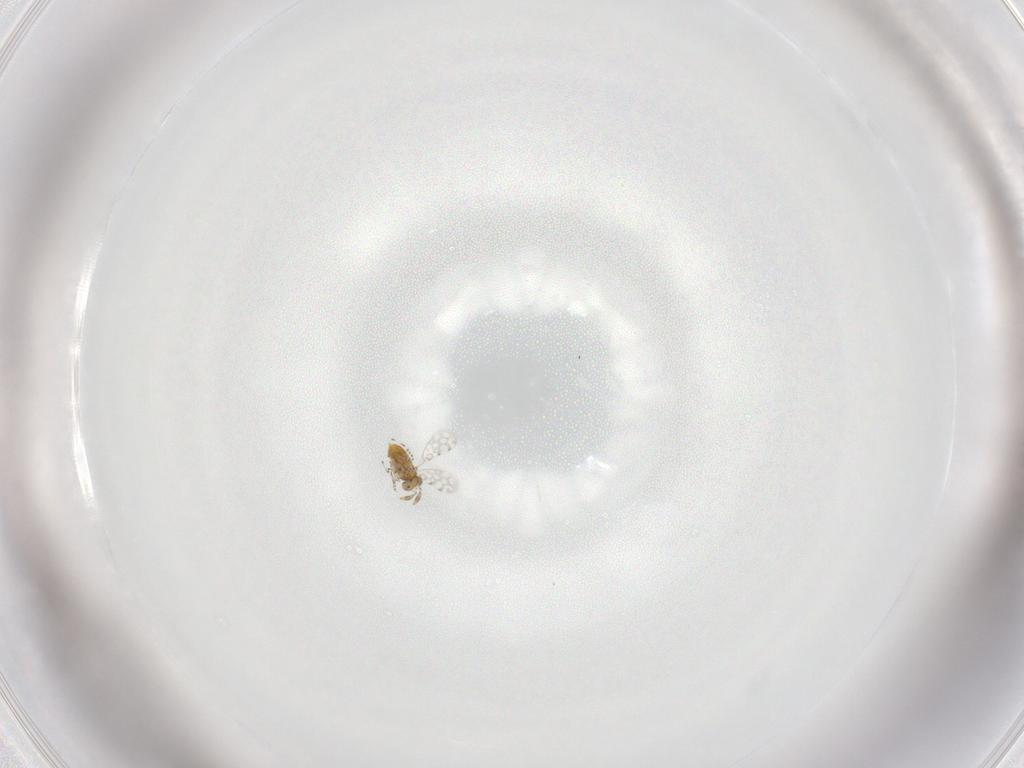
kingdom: Animalia
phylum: Arthropoda
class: Insecta
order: Hymenoptera
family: Aphelinidae
